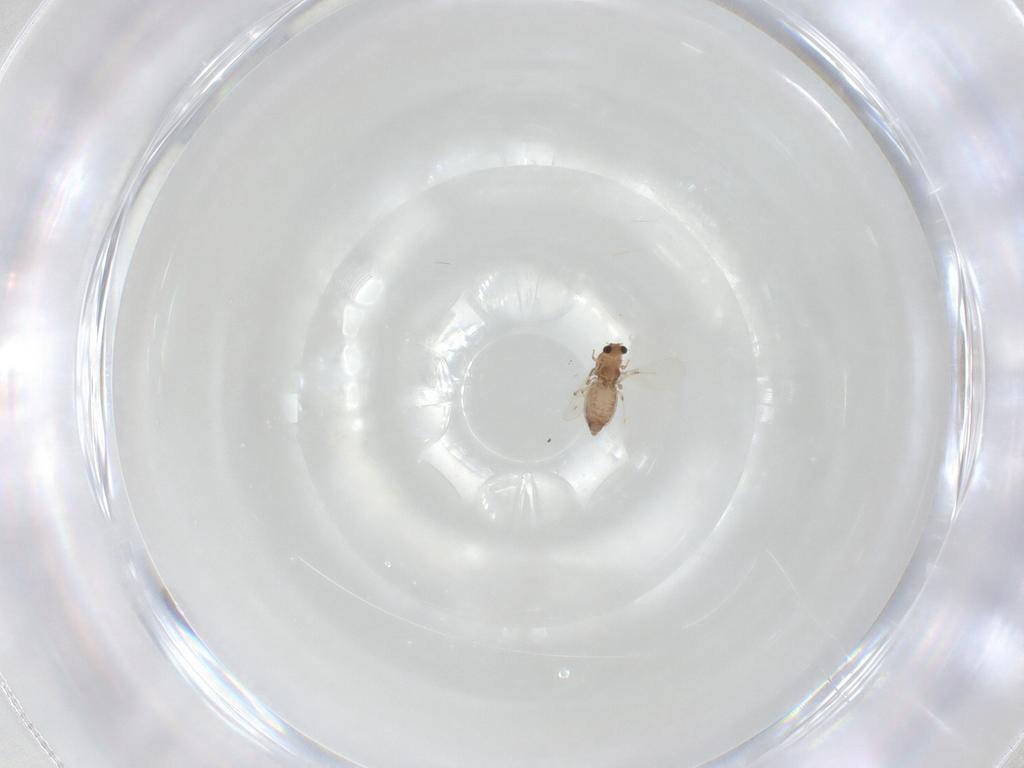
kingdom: Animalia
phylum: Arthropoda
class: Insecta
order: Diptera
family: Chironomidae
